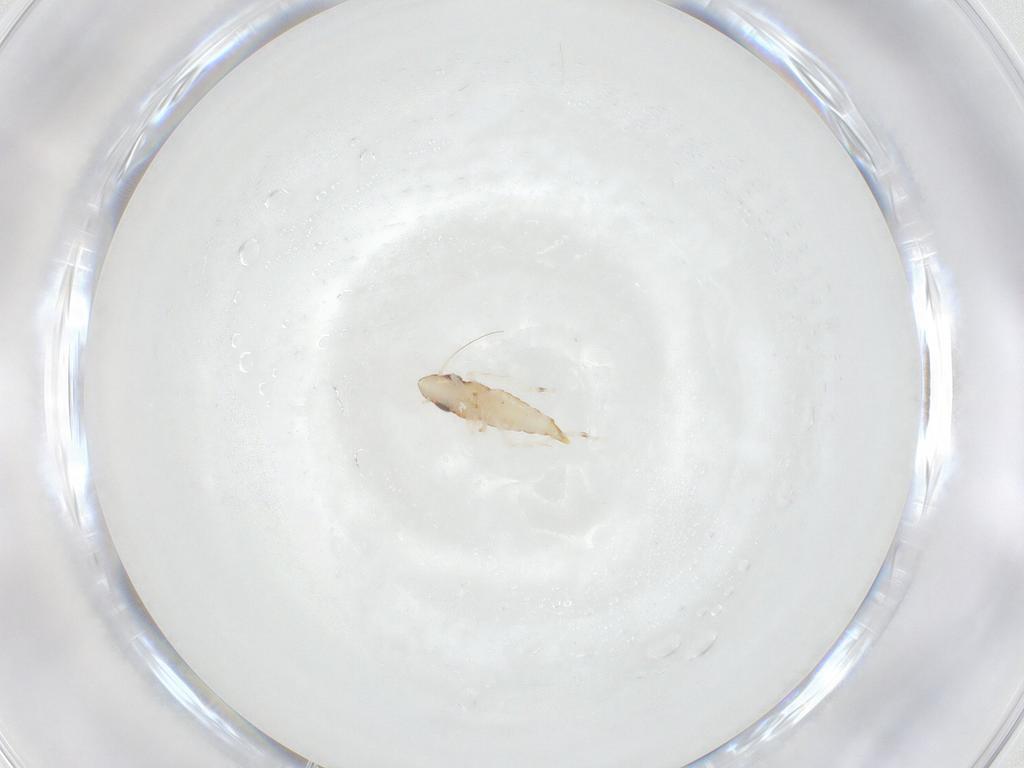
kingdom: Animalia
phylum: Arthropoda
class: Insecta
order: Hemiptera
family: Cicadellidae
